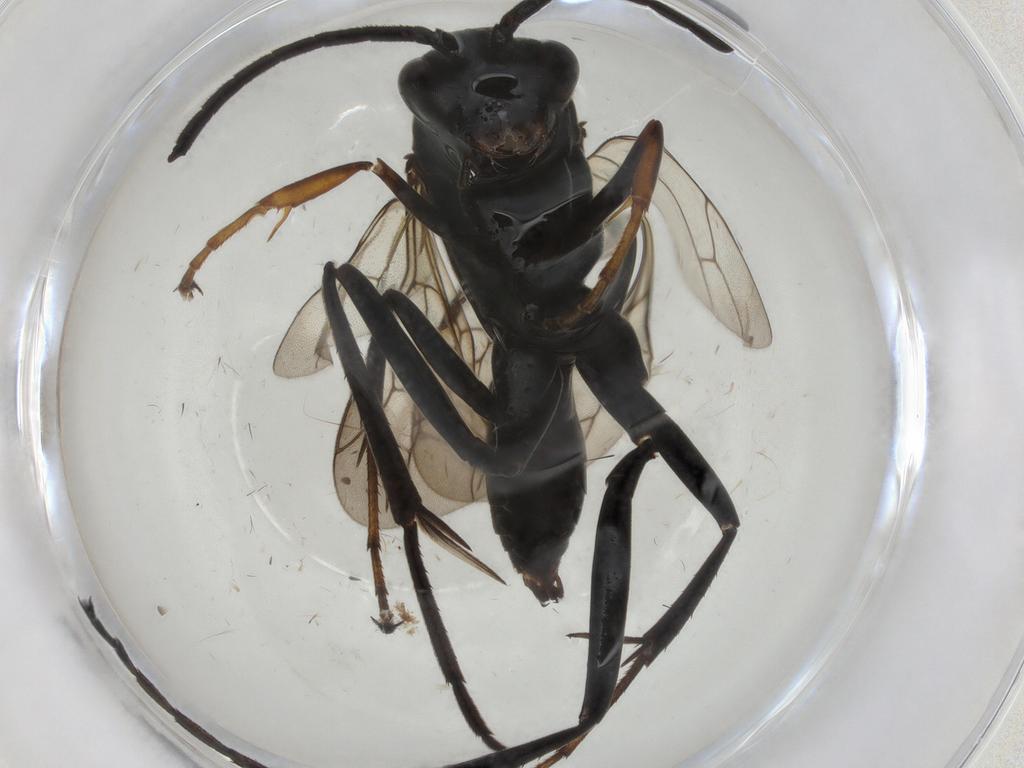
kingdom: Animalia
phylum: Arthropoda
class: Insecta
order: Hymenoptera
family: Pompilidae
